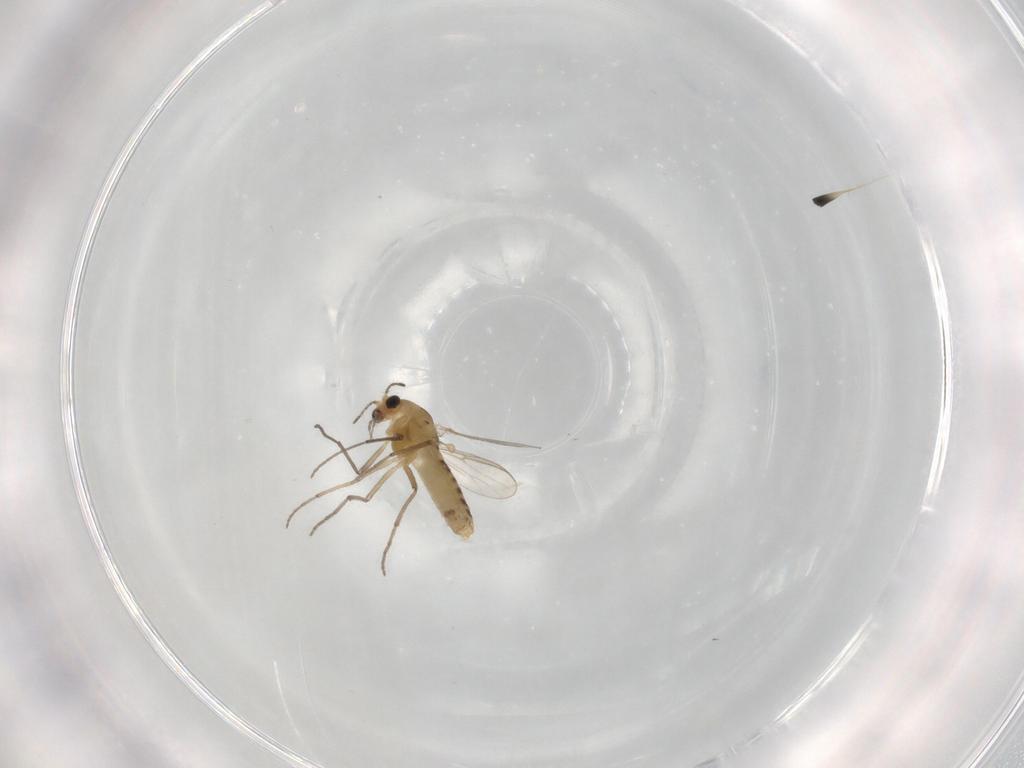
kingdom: Animalia
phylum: Arthropoda
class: Insecta
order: Diptera
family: Chironomidae
